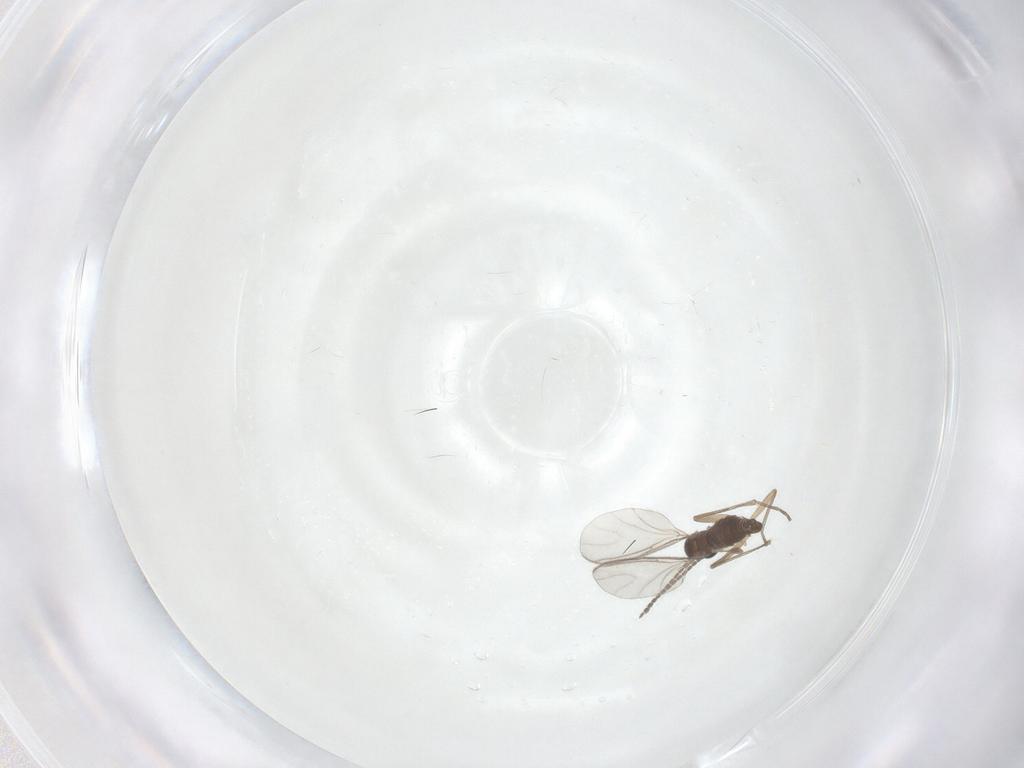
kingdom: Animalia
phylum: Arthropoda
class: Insecta
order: Diptera
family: Sciaridae
